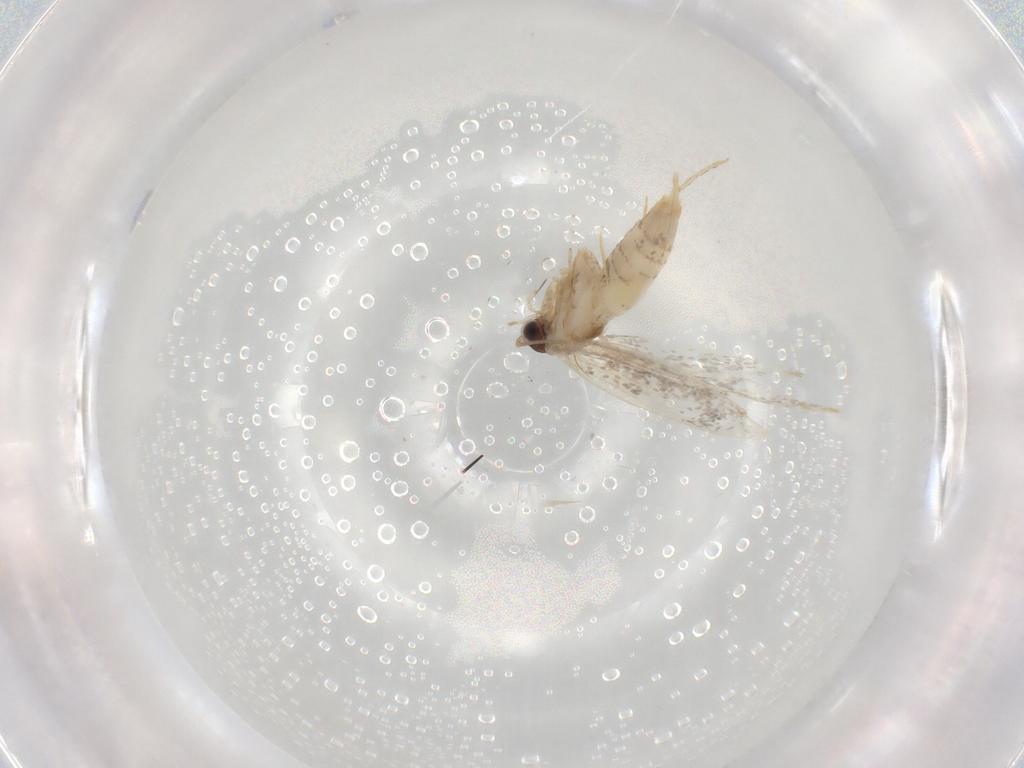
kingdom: Animalia
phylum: Arthropoda
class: Insecta
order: Lepidoptera
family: Tineidae
